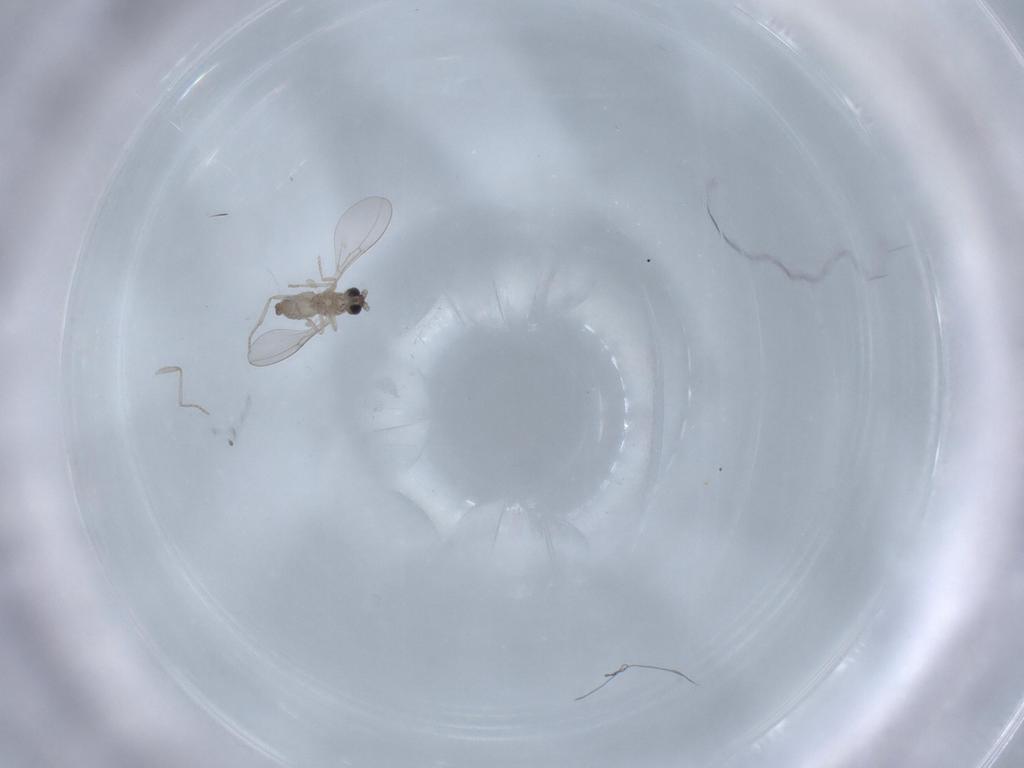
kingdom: Animalia
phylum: Arthropoda
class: Insecta
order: Diptera
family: Cecidomyiidae
